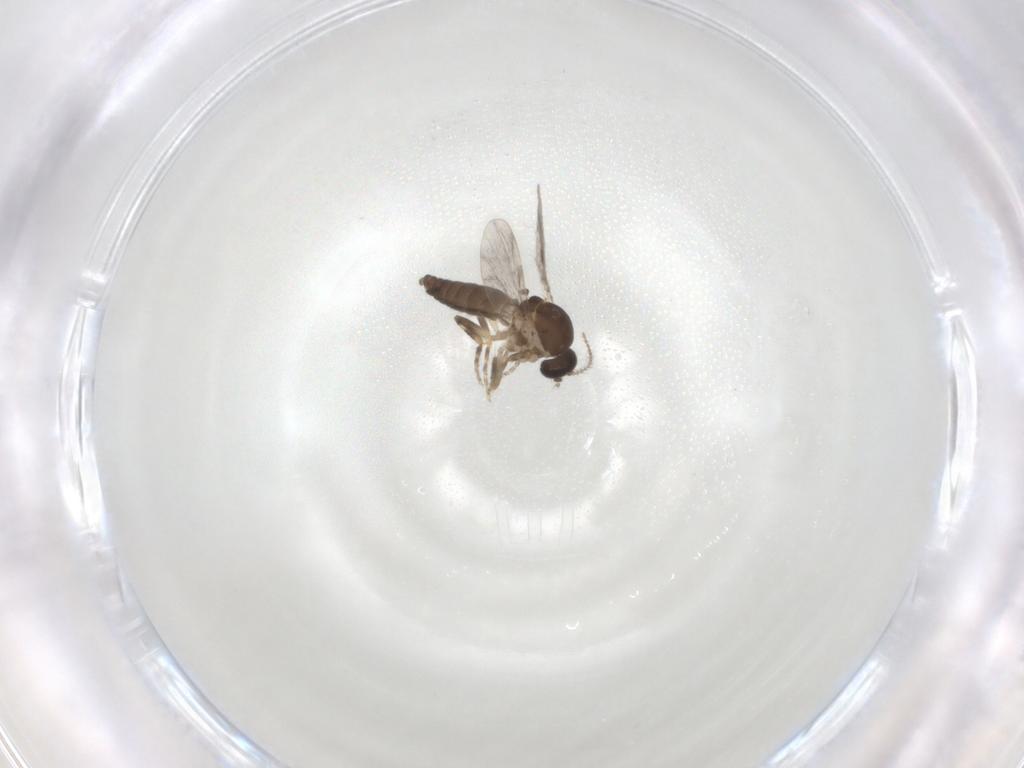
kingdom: Animalia
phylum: Arthropoda
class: Insecta
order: Diptera
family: Ceratopogonidae
